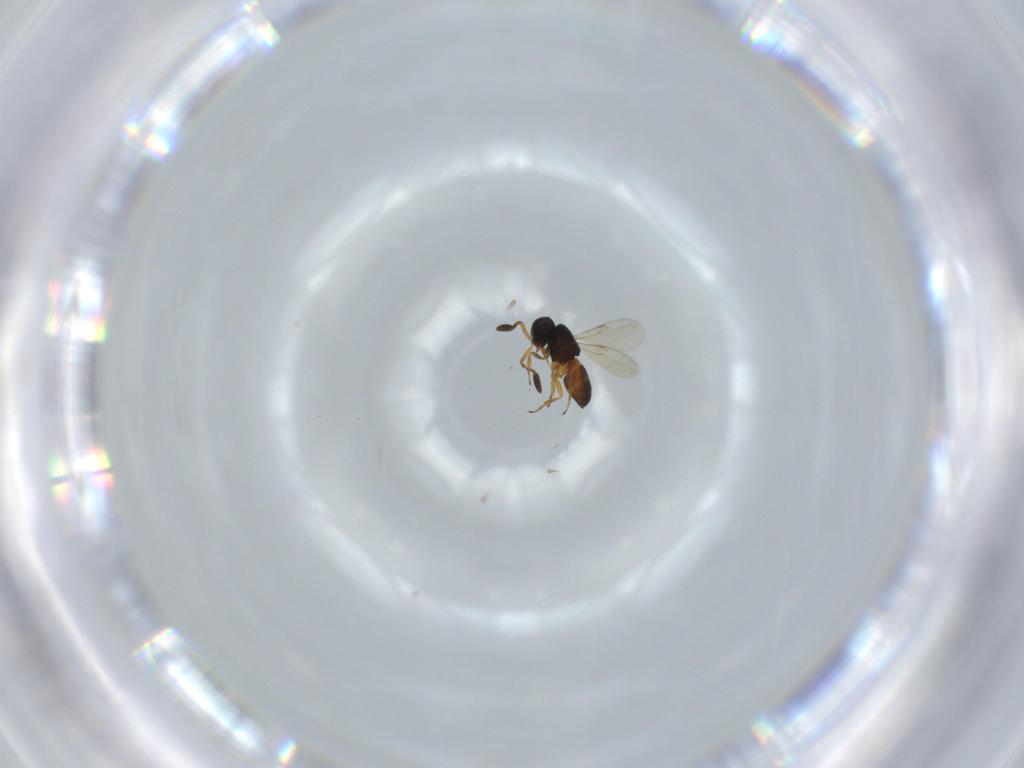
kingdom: Animalia
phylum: Arthropoda
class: Insecta
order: Hymenoptera
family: Scelionidae
